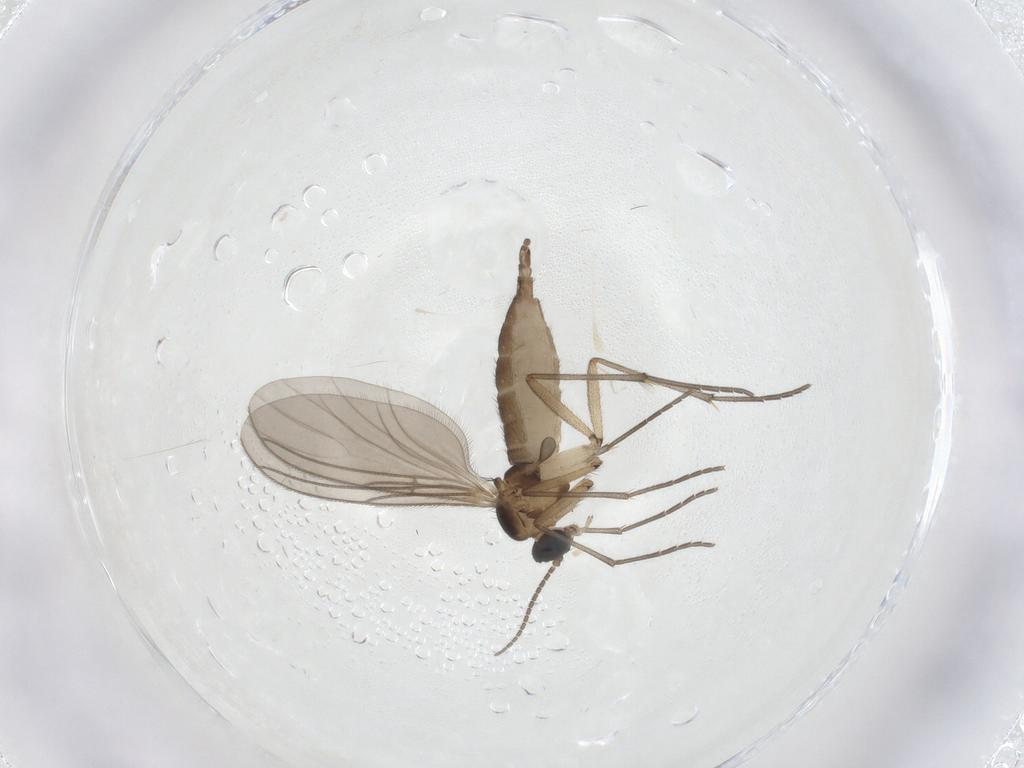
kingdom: Animalia
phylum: Arthropoda
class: Insecta
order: Diptera
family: Sciaridae
